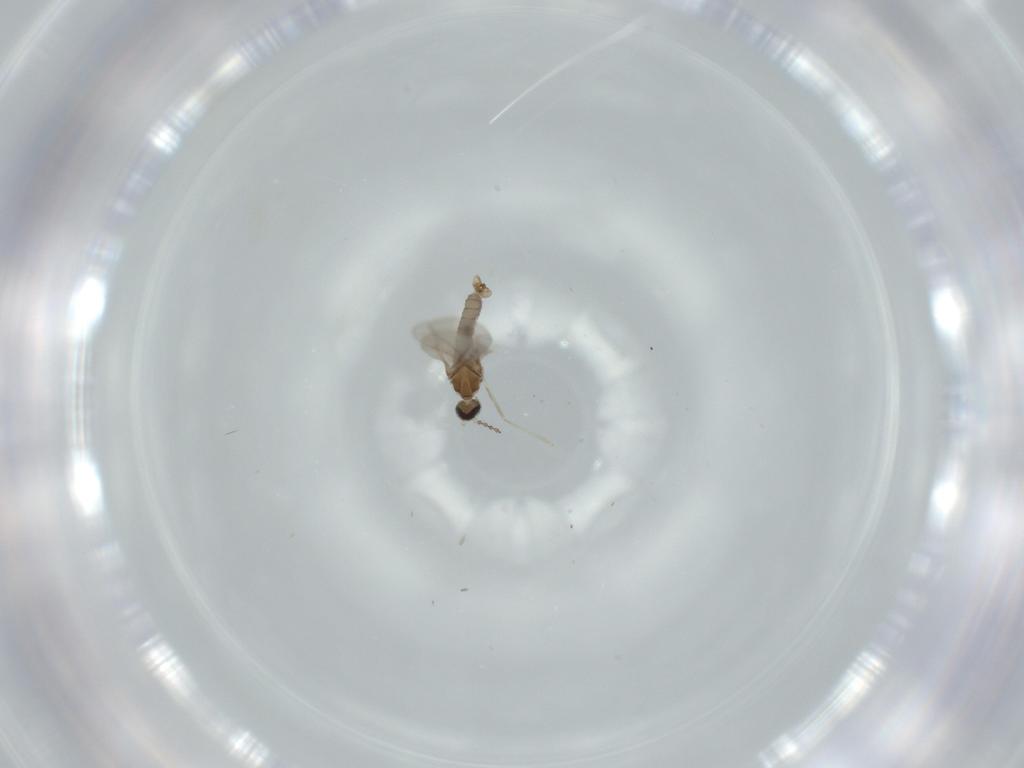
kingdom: Animalia
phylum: Arthropoda
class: Insecta
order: Diptera
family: Cecidomyiidae
